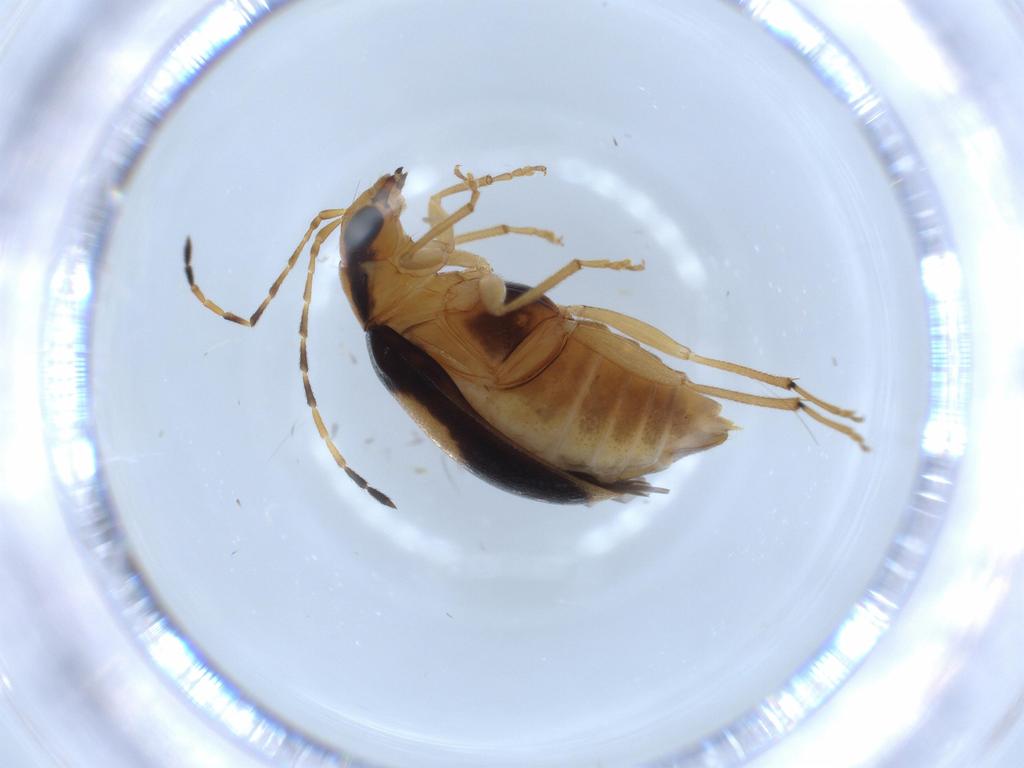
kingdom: Animalia
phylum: Arthropoda
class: Insecta
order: Coleoptera
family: Chrysomelidae
